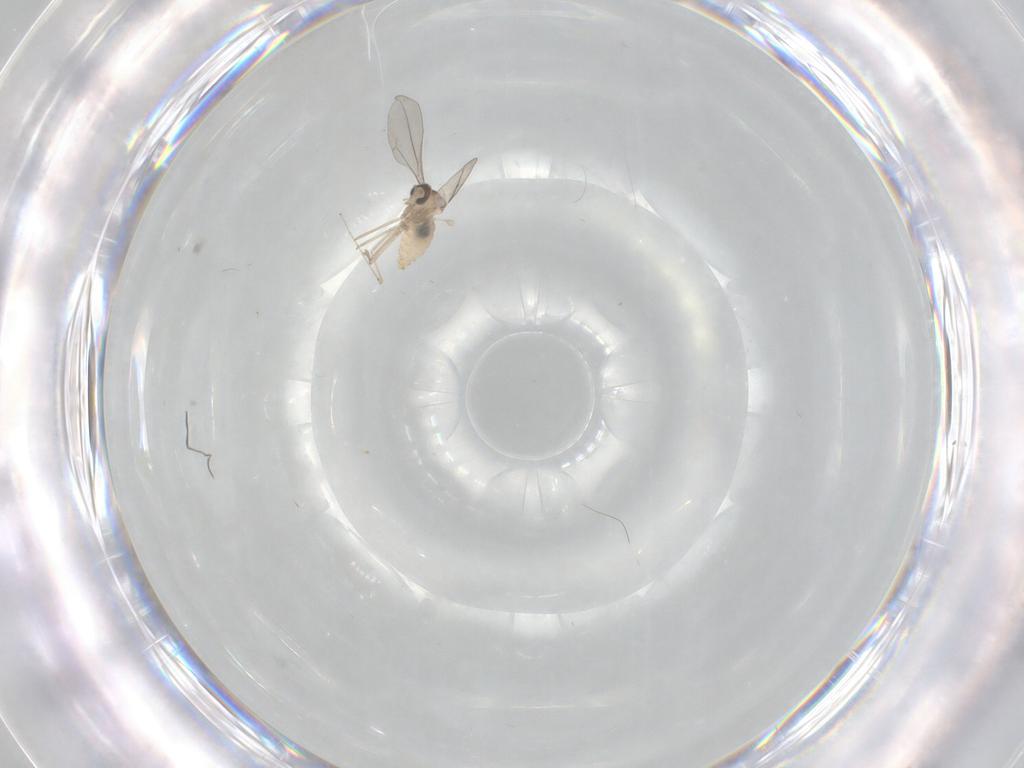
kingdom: Animalia
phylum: Arthropoda
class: Insecta
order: Diptera
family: Cecidomyiidae
